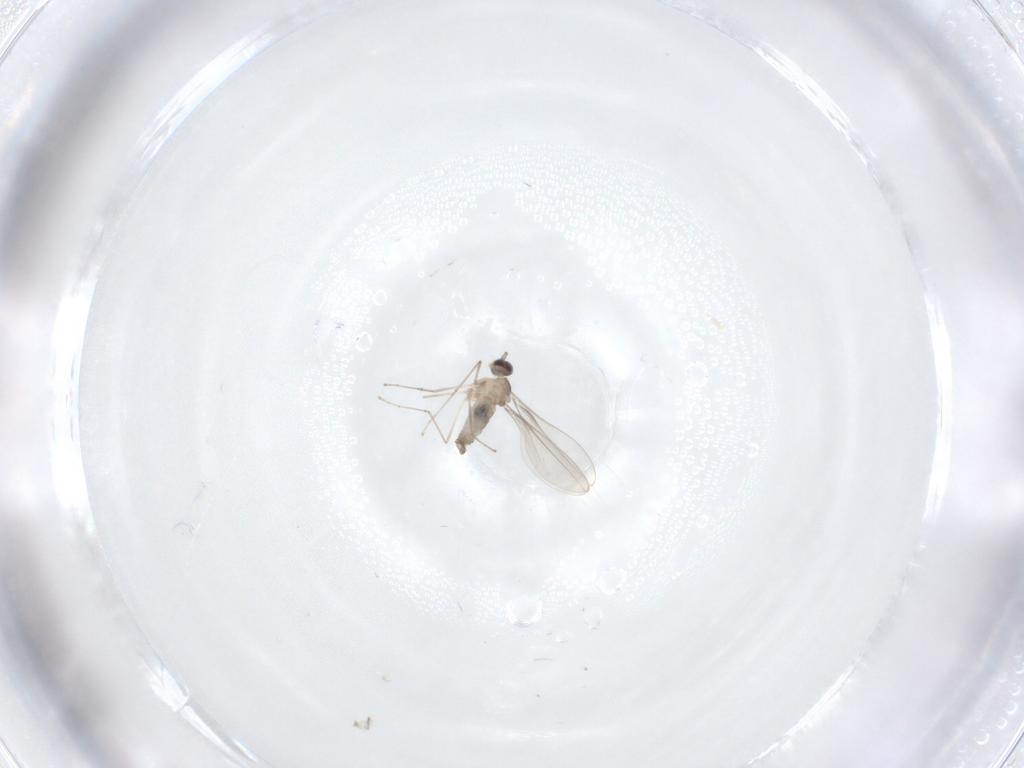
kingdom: Animalia
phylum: Arthropoda
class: Insecta
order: Diptera
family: Cecidomyiidae
